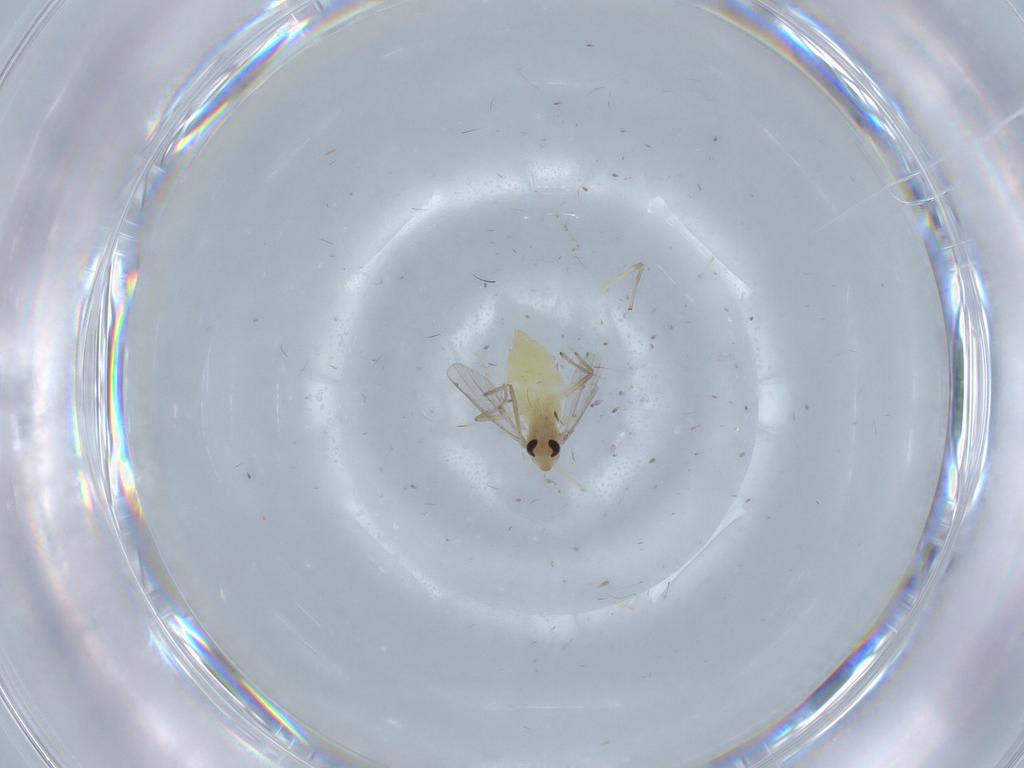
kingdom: Animalia
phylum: Arthropoda
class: Insecta
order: Diptera
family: Chironomidae
